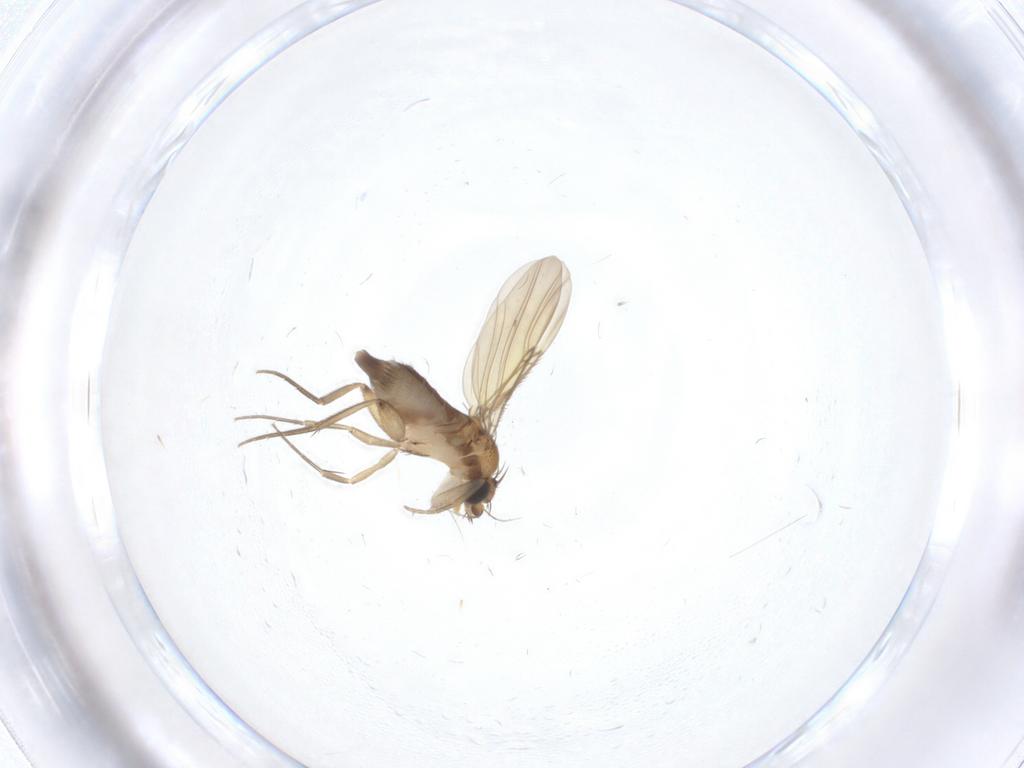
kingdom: Animalia
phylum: Arthropoda
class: Insecta
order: Diptera
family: Phoridae
